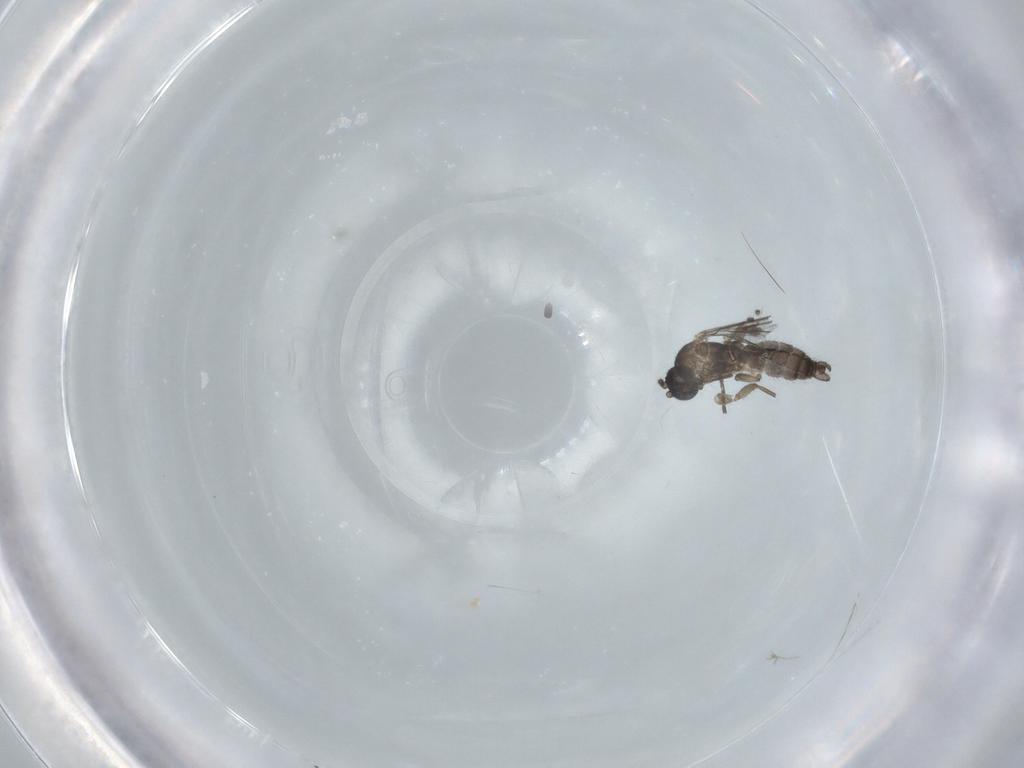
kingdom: Animalia
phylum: Arthropoda
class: Insecta
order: Diptera
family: Sciaridae
